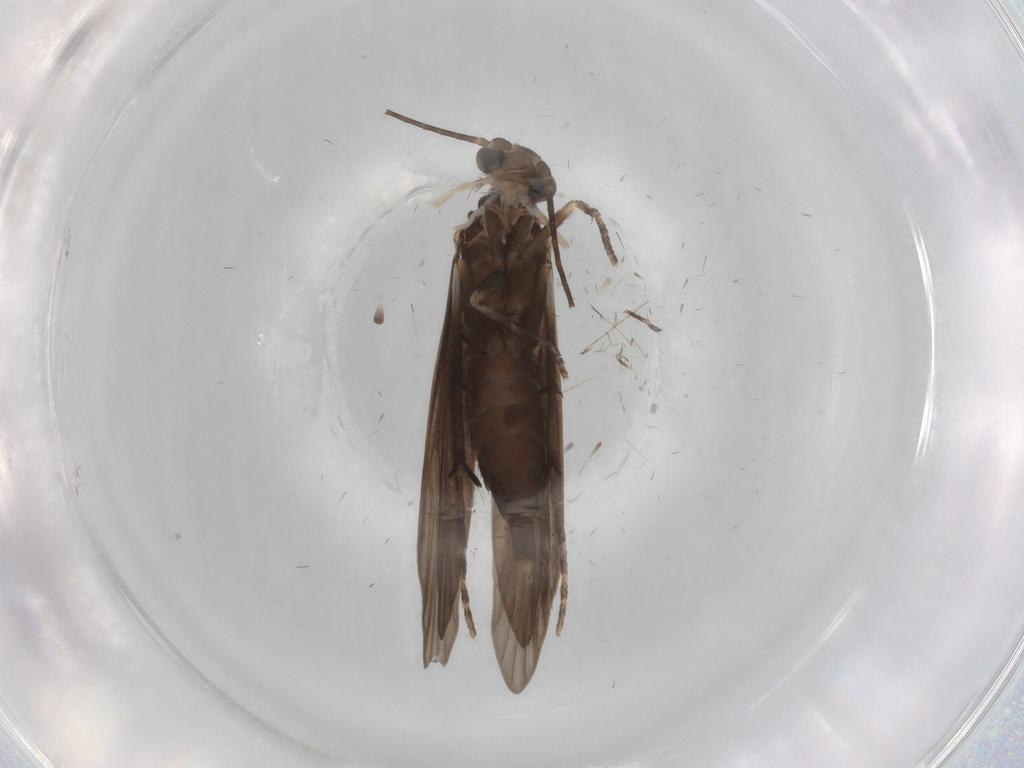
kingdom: Animalia
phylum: Arthropoda
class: Insecta
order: Trichoptera
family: Xiphocentronidae
